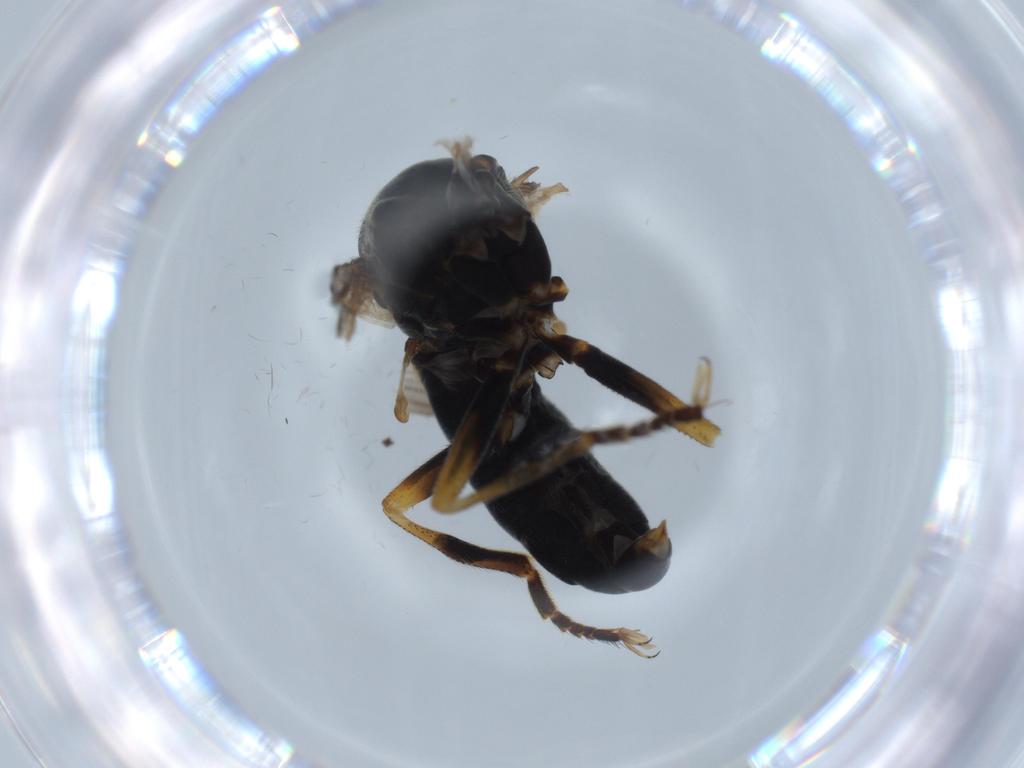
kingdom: Animalia
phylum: Arthropoda
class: Insecta
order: Diptera
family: Pipunculidae
